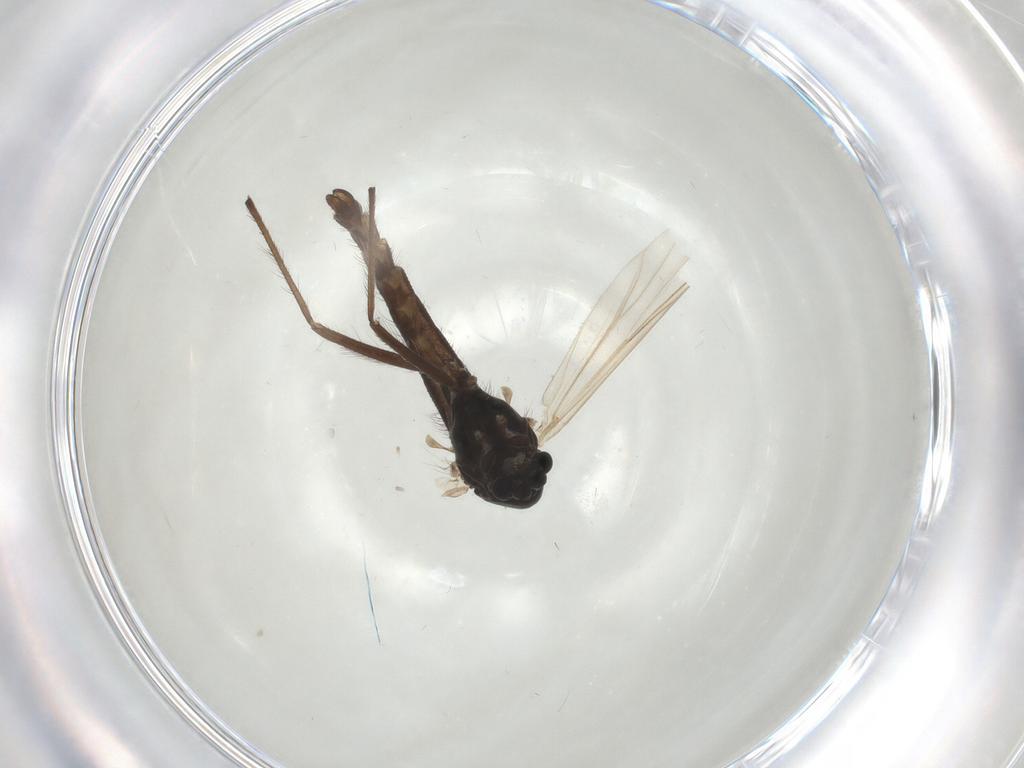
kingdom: Animalia
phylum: Arthropoda
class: Insecta
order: Diptera
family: Chironomidae
